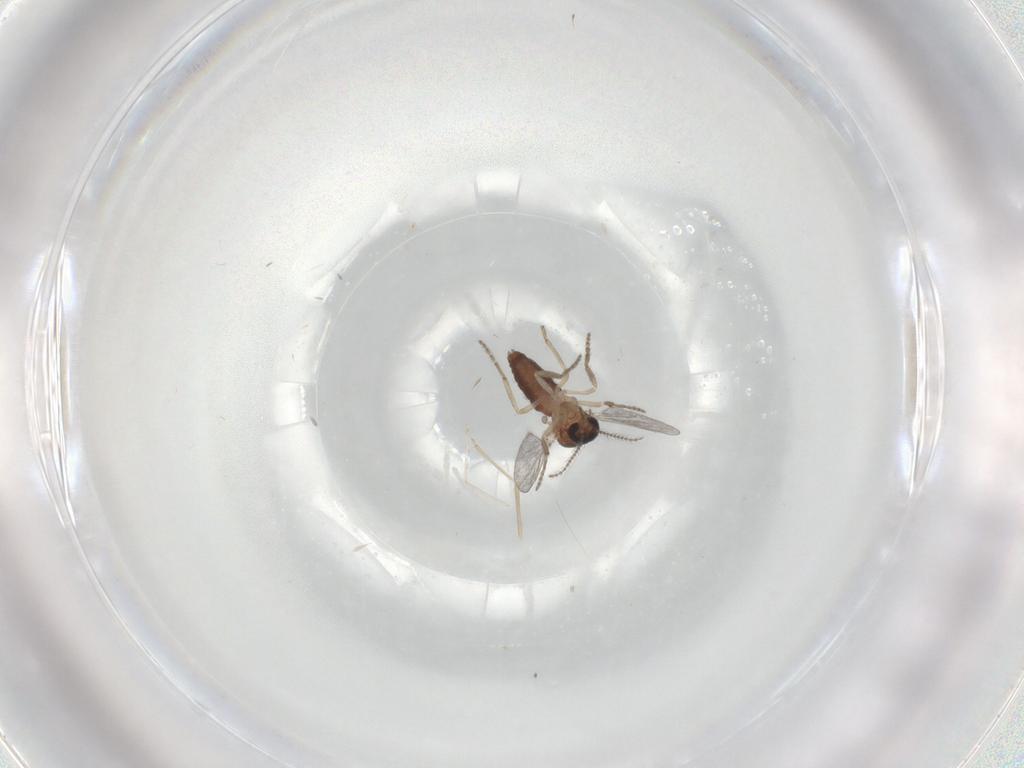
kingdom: Animalia
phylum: Arthropoda
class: Insecta
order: Diptera
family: Ceratopogonidae
